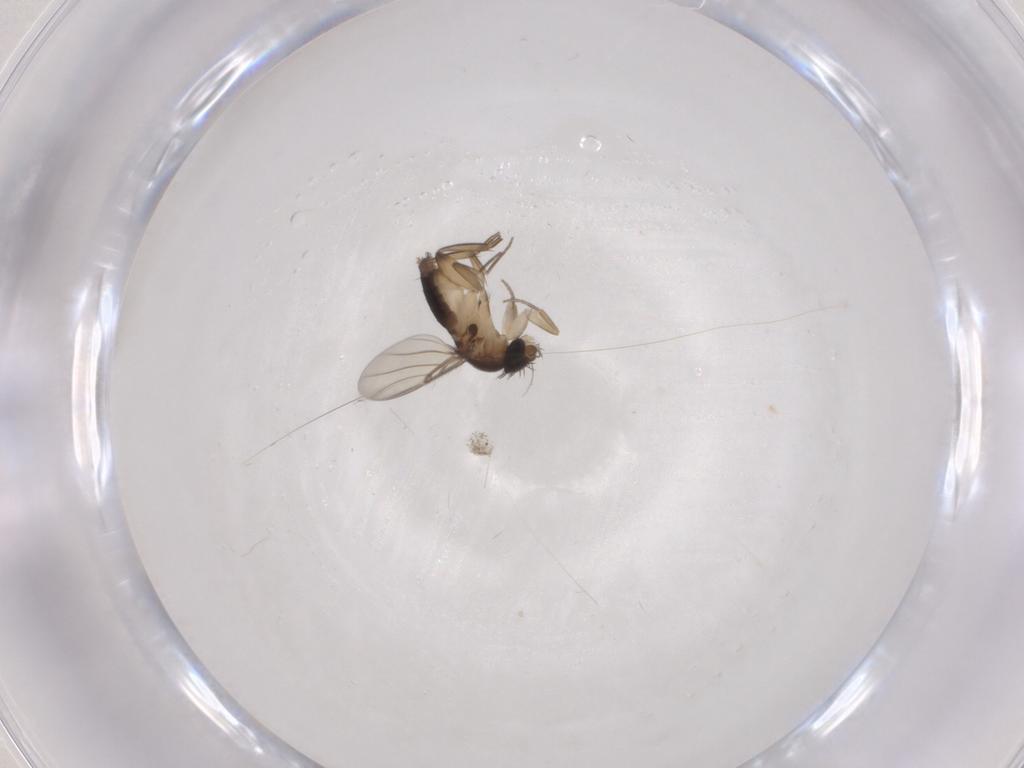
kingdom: Animalia
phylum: Arthropoda
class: Insecta
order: Diptera
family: Phoridae
